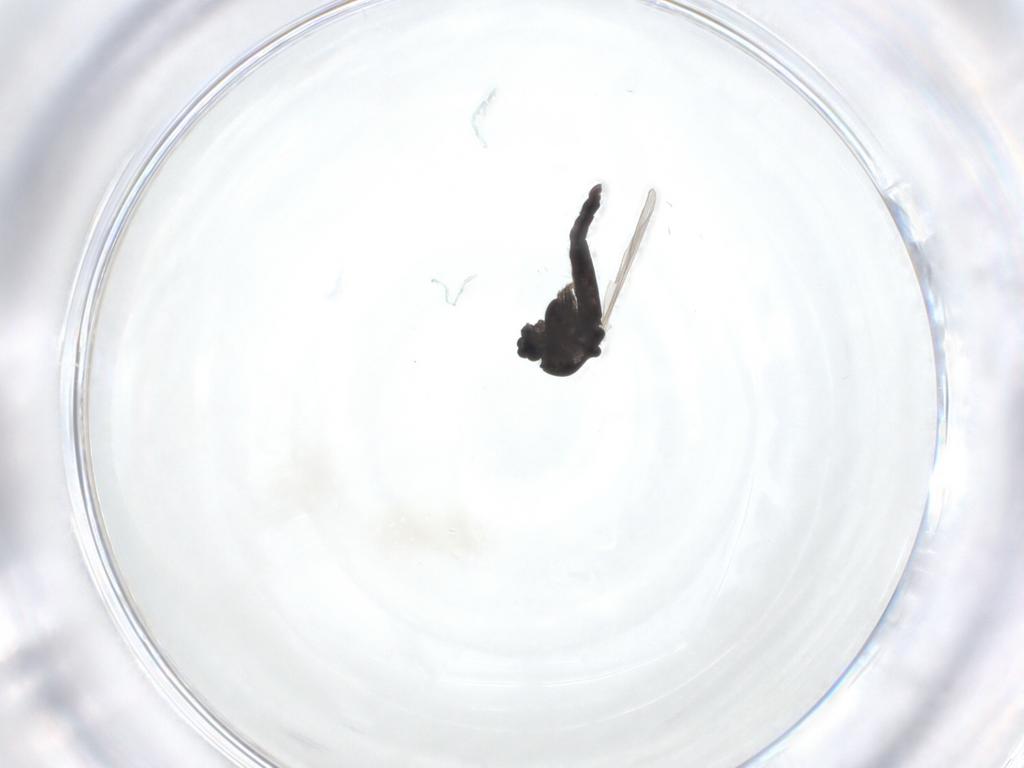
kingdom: Animalia
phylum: Arthropoda
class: Insecta
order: Diptera
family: Chironomidae
